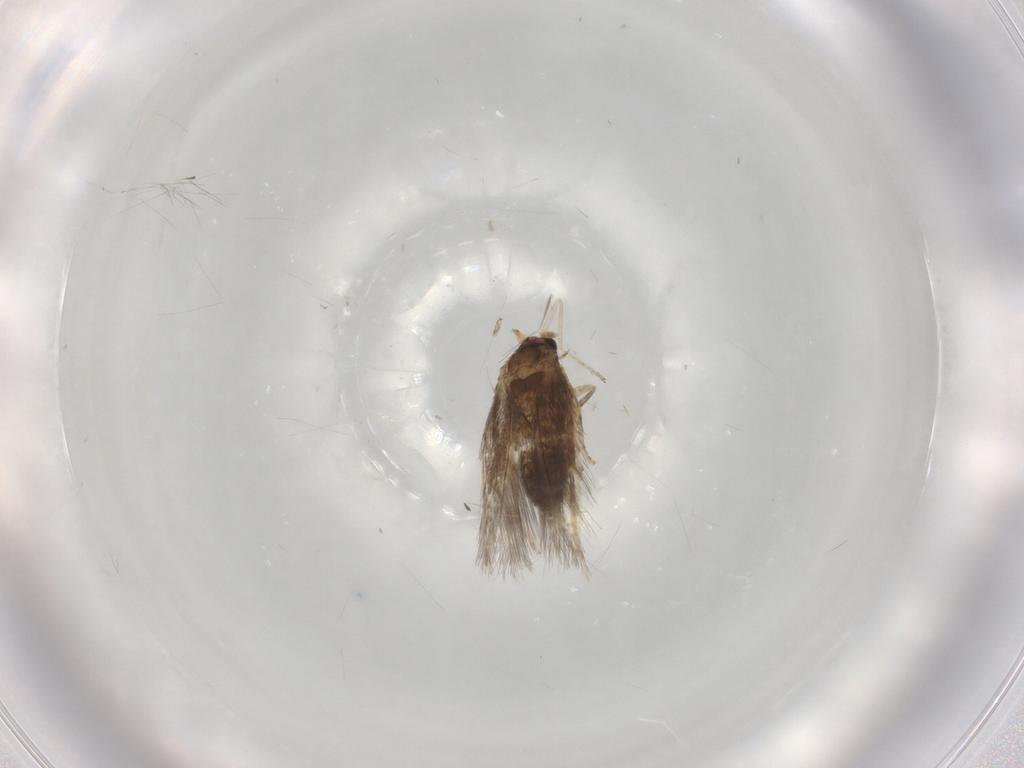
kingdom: Animalia
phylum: Arthropoda
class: Insecta
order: Lepidoptera
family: Nepticulidae
